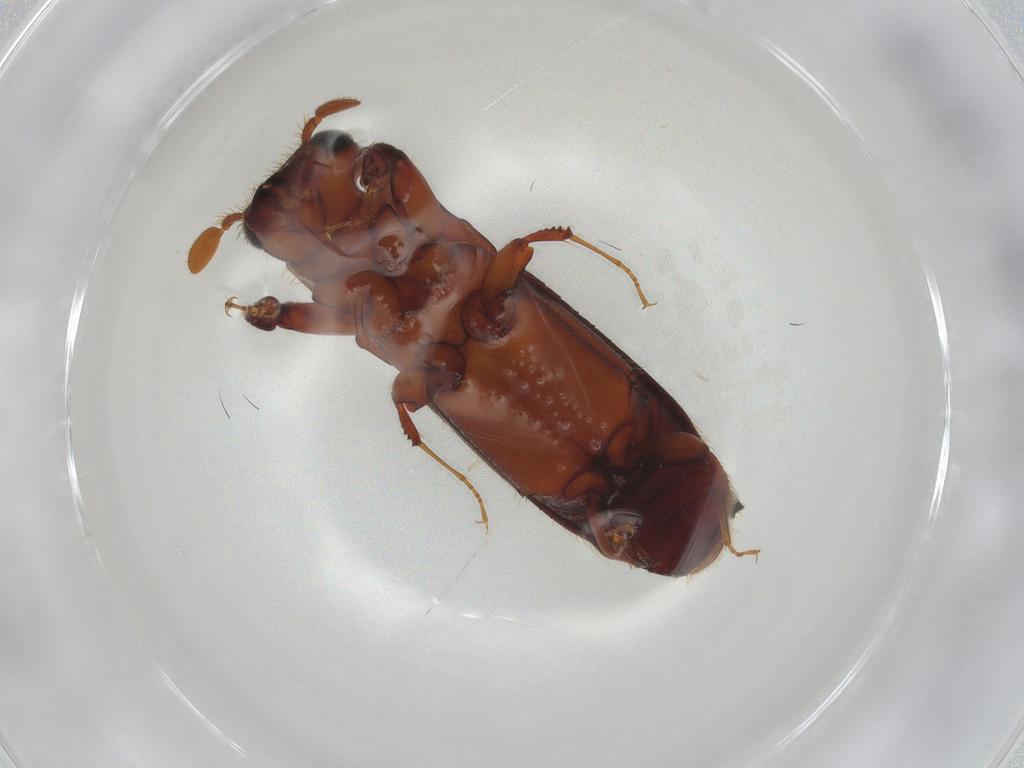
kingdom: Animalia
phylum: Arthropoda
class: Insecta
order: Hemiptera
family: Aleyrodidae
